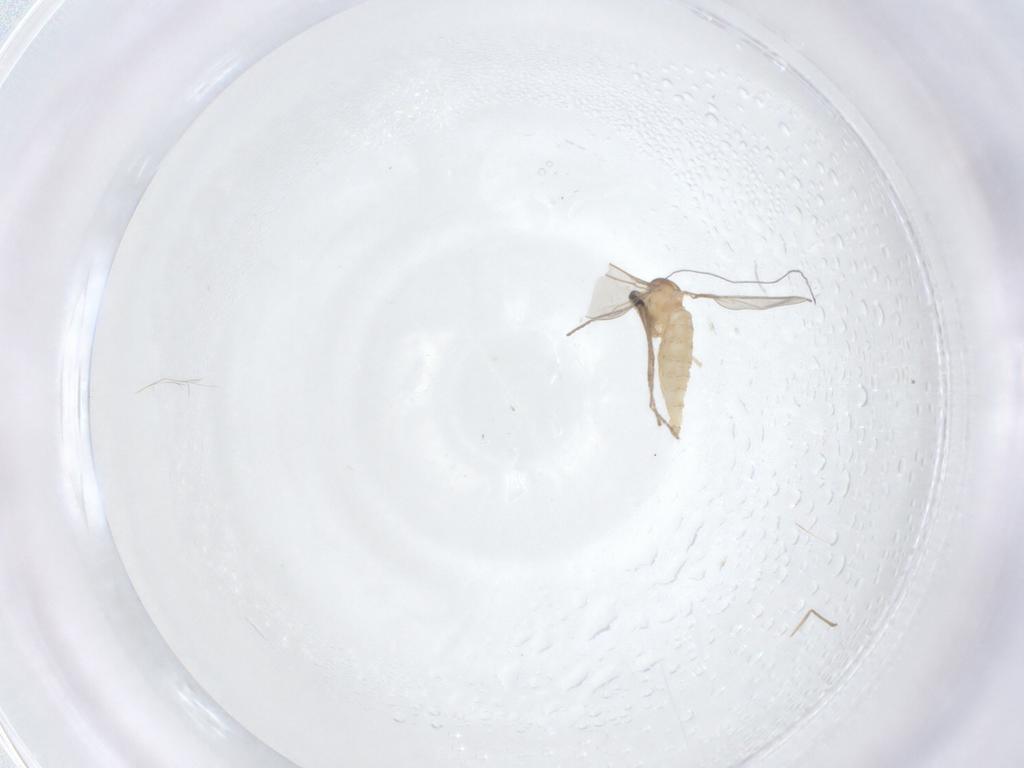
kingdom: Animalia
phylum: Arthropoda
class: Insecta
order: Diptera
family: Cecidomyiidae
